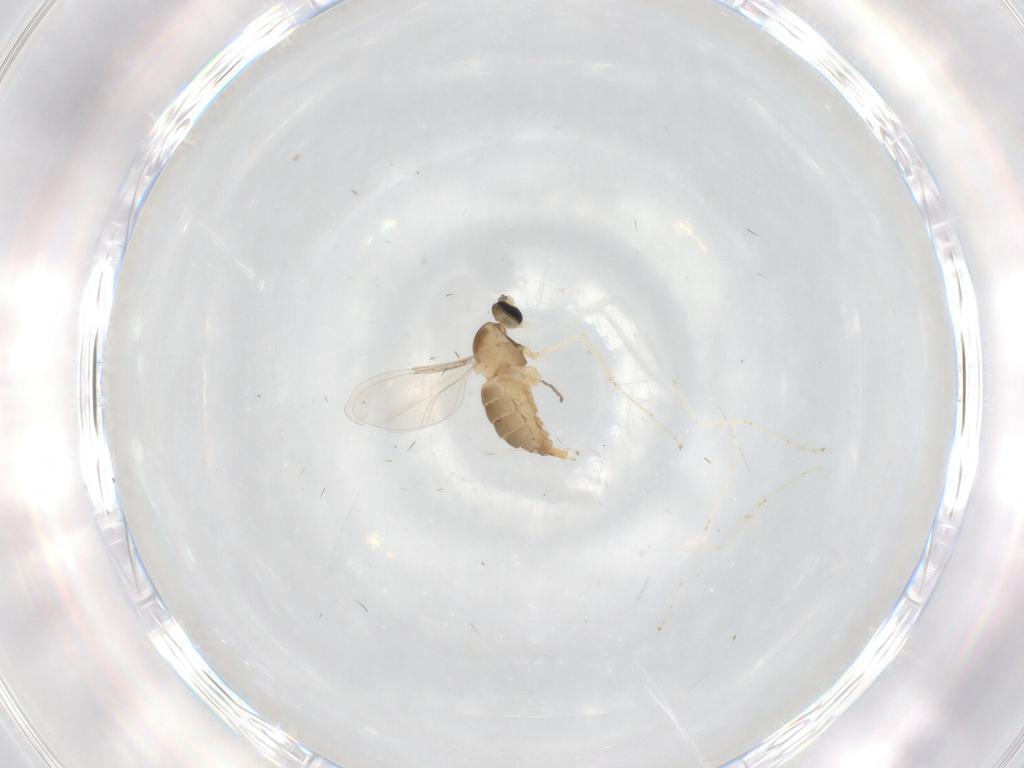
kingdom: Animalia
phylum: Arthropoda
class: Insecta
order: Diptera
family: Cecidomyiidae
